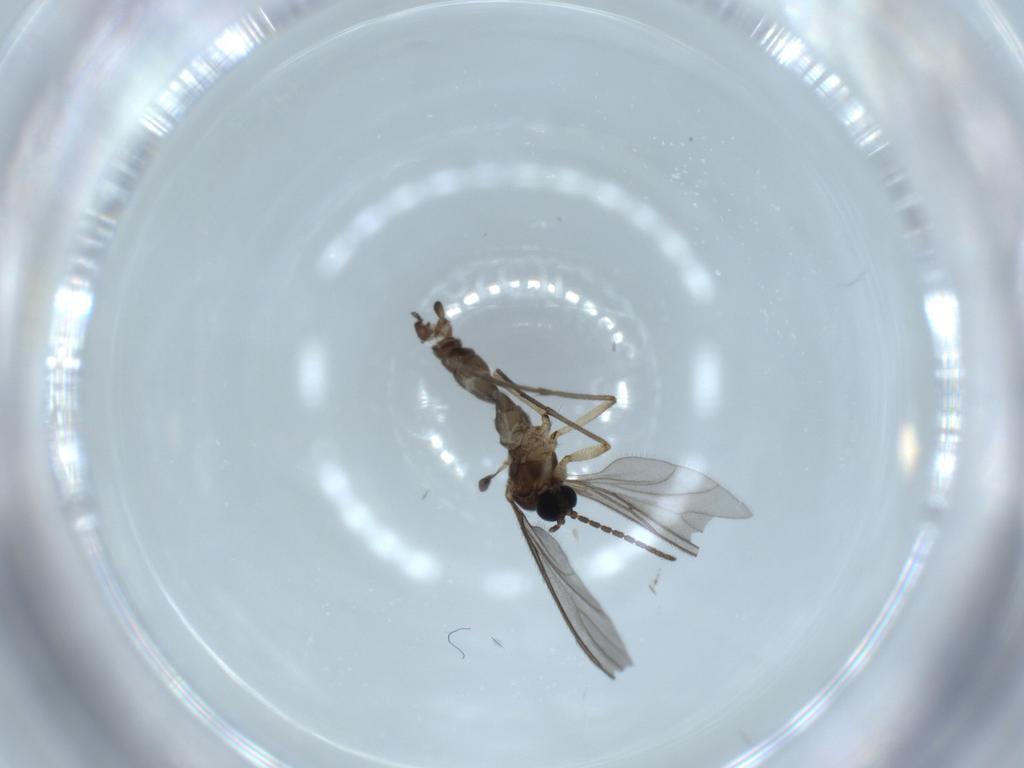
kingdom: Animalia
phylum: Arthropoda
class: Insecta
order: Diptera
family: Sciaridae
